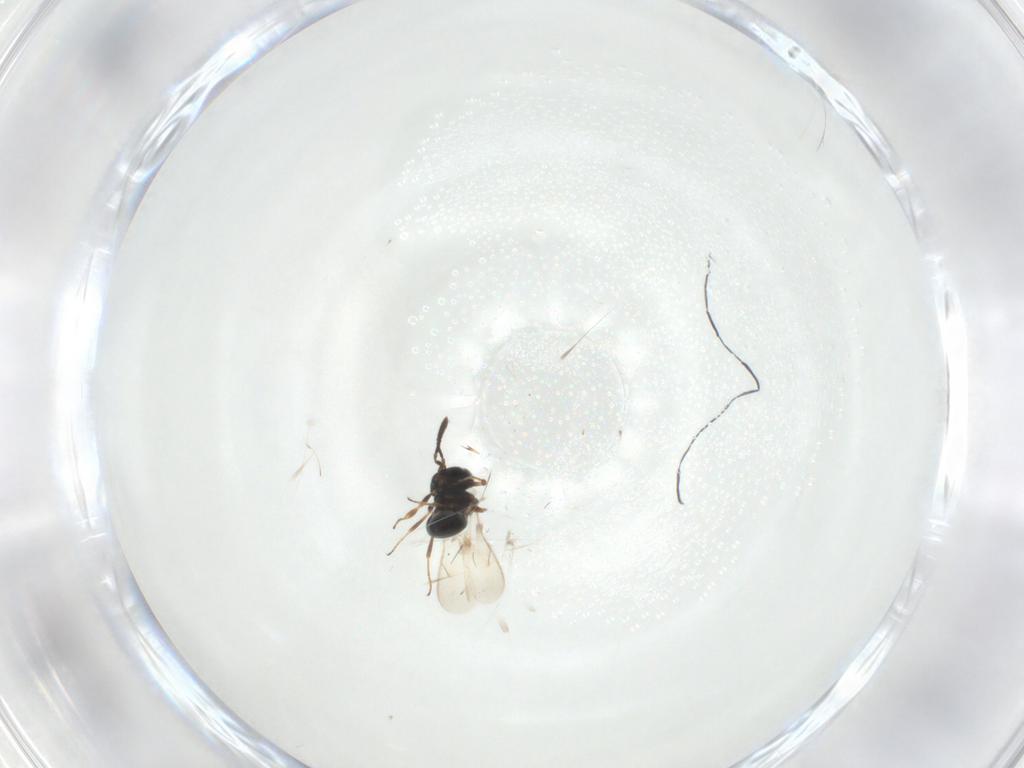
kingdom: Animalia
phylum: Arthropoda
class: Insecta
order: Hymenoptera
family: Scelionidae
